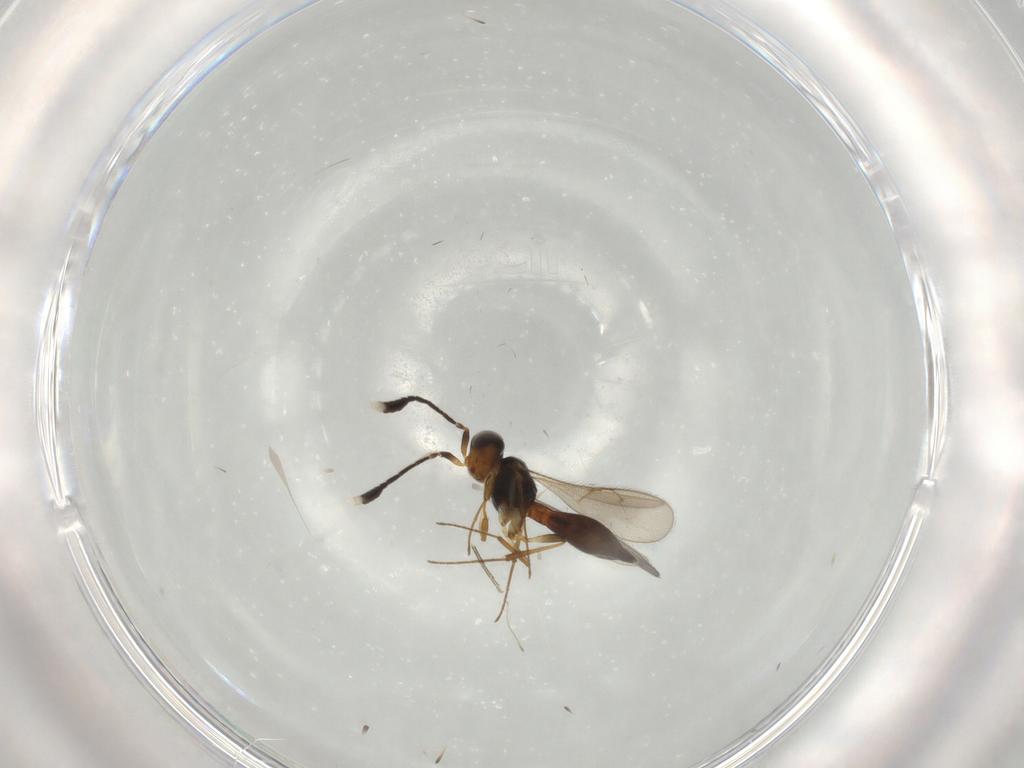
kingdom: Animalia
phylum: Arthropoda
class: Insecta
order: Hymenoptera
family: Scelionidae
